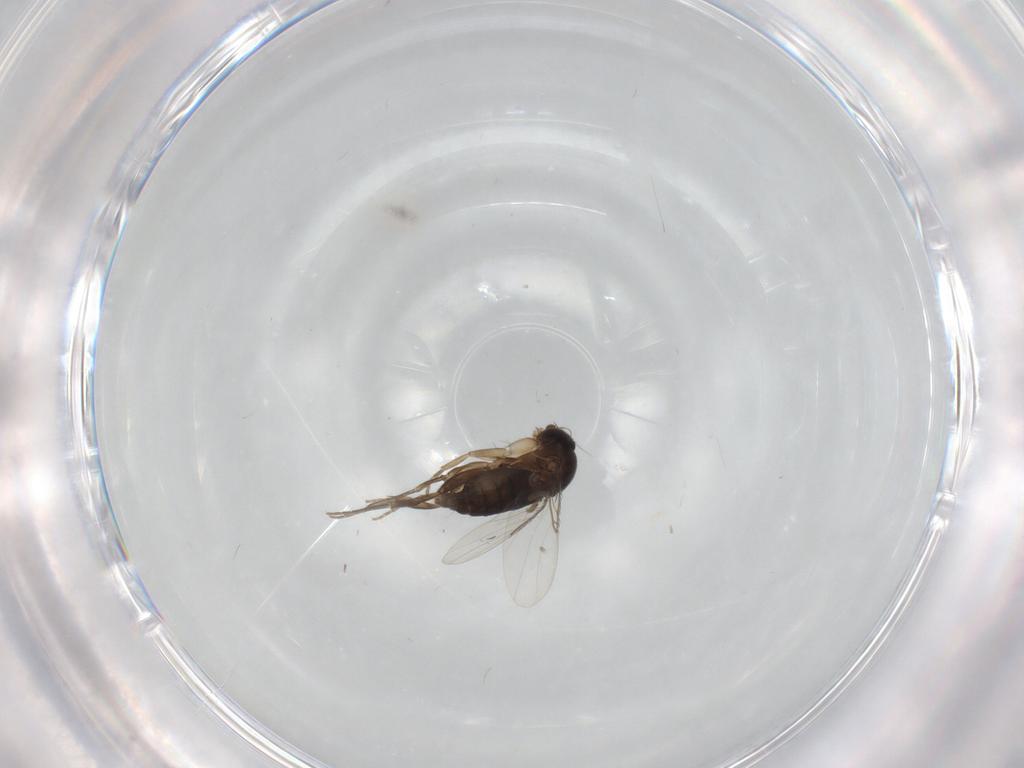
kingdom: Animalia
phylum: Arthropoda
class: Insecta
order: Diptera
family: Phoridae
